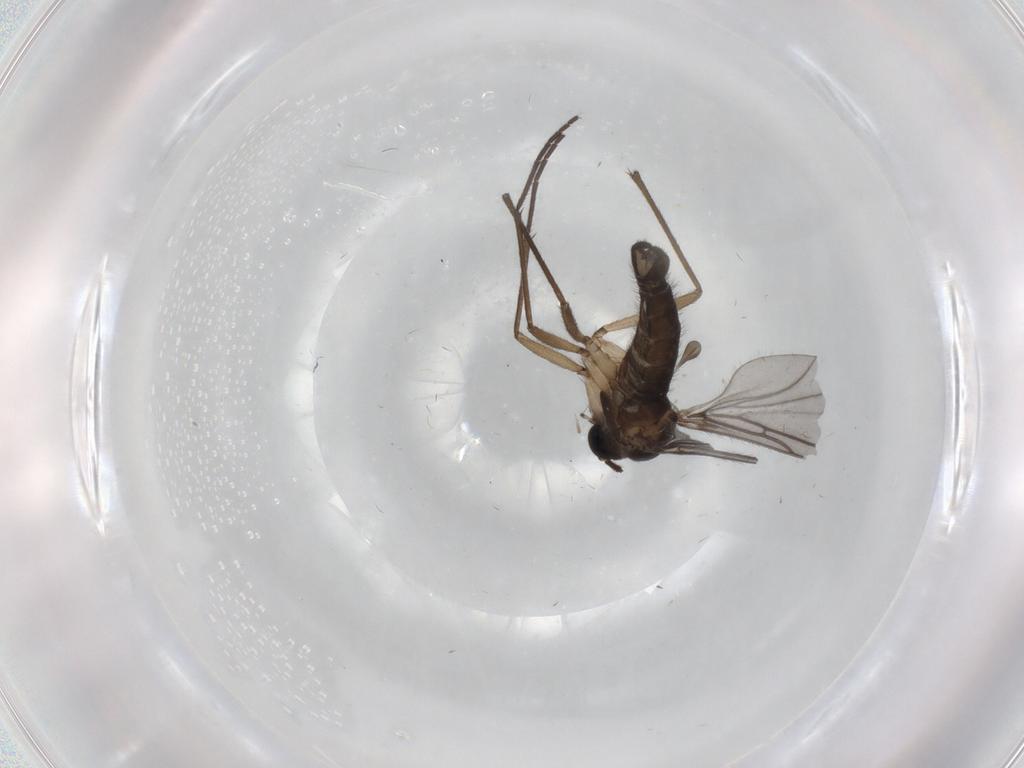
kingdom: Animalia
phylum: Arthropoda
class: Insecta
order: Diptera
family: Sciaridae
